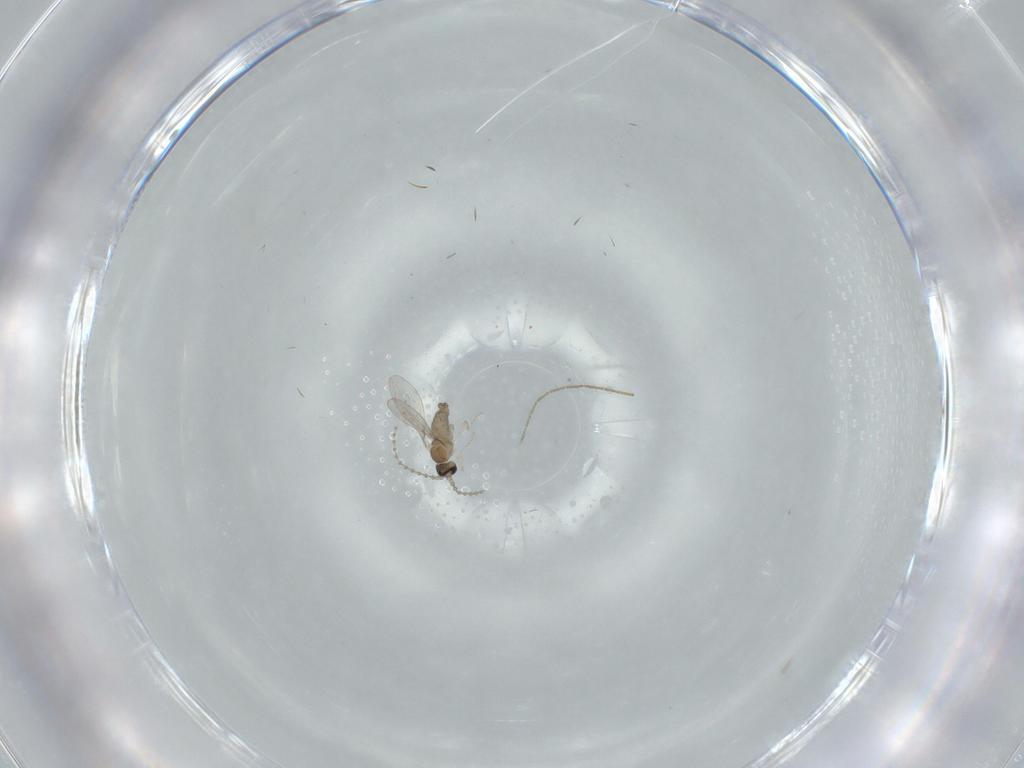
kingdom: Animalia
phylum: Arthropoda
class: Insecta
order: Diptera
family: Cecidomyiidae
